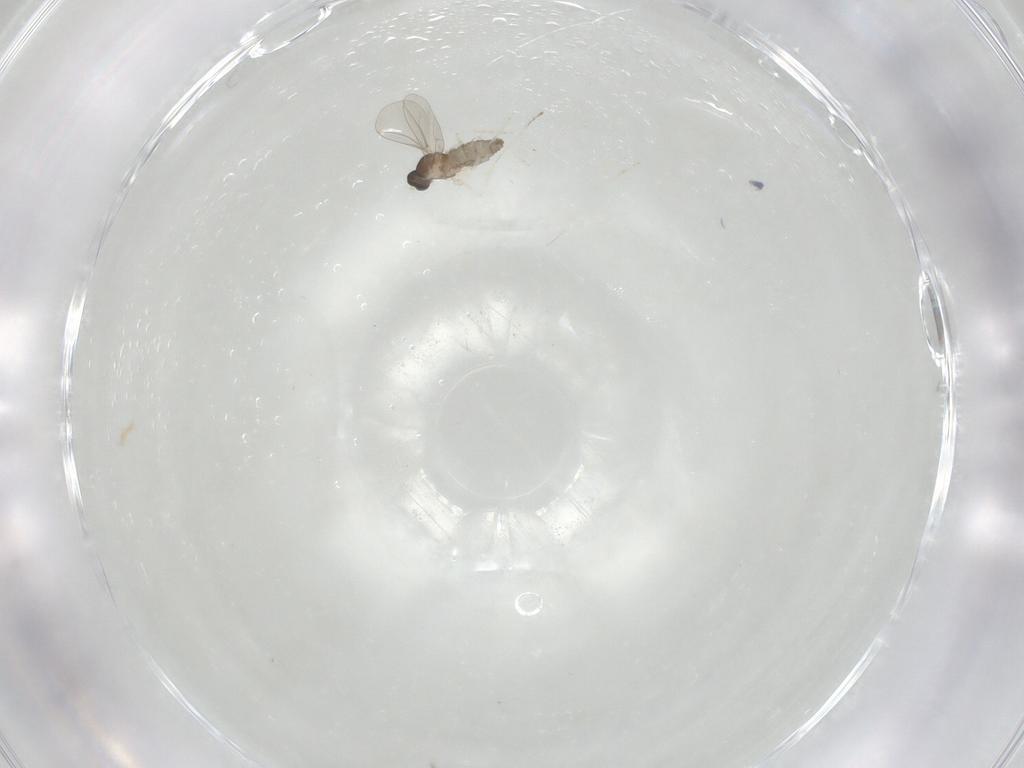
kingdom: Animalia
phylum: Arthropoda
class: Insecta
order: Diptera
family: Cecidomyiidae
